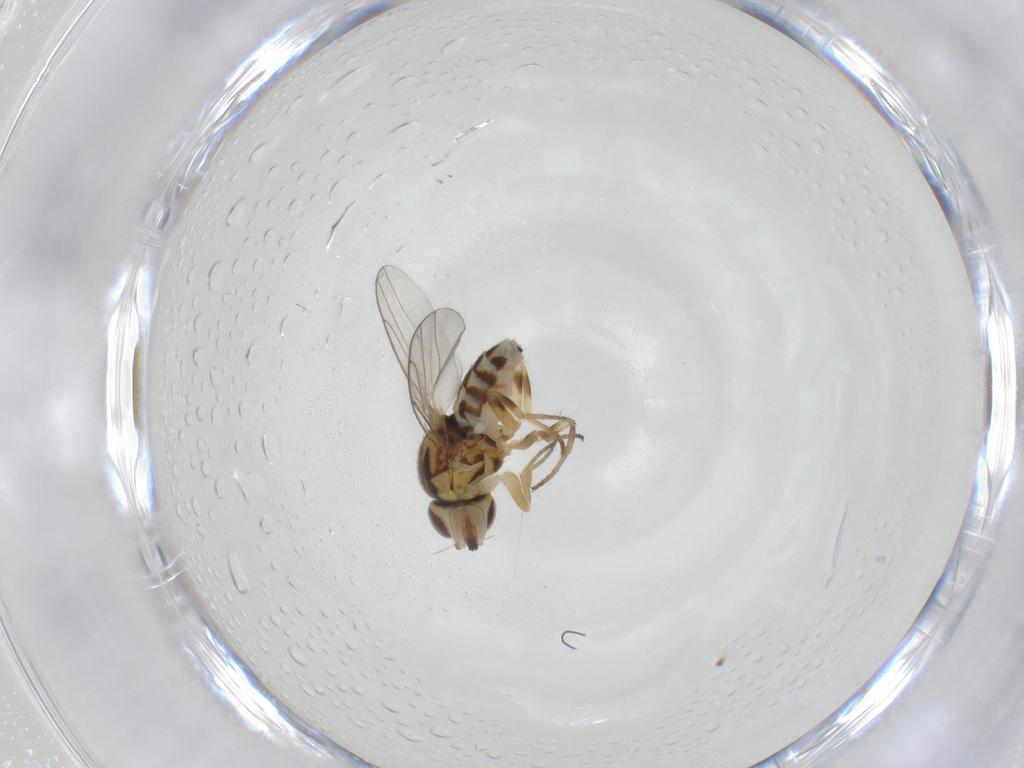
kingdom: Animalia
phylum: Arthropoda
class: Insecta
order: Diptera
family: Chloropidae
